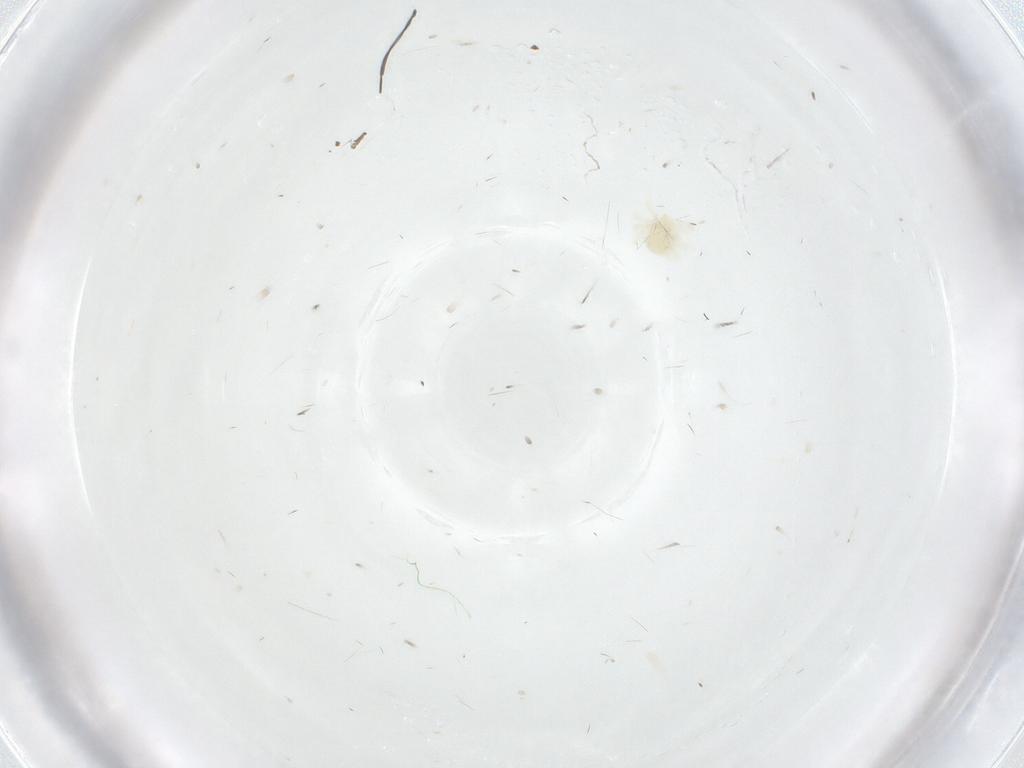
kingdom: Animalia
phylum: Arthropoda
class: Arachnida
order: Trombidiformes
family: Anystidae
